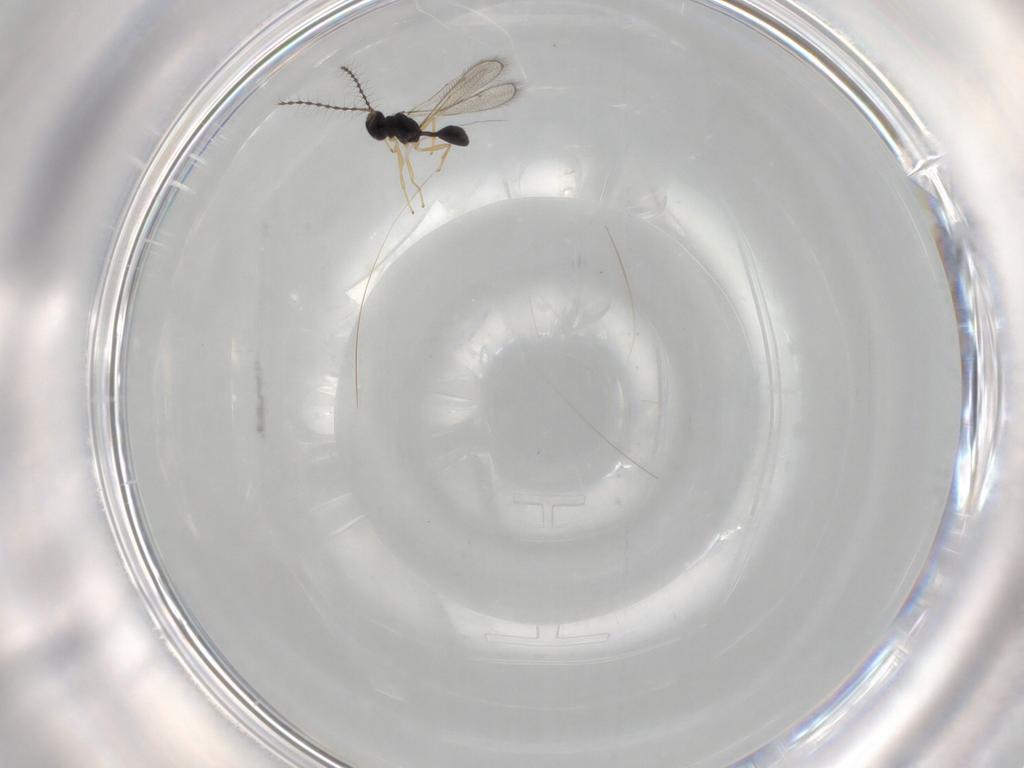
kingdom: Animalia
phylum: Arthropoda
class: Insecta
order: Hymenoptera
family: Diparidae
